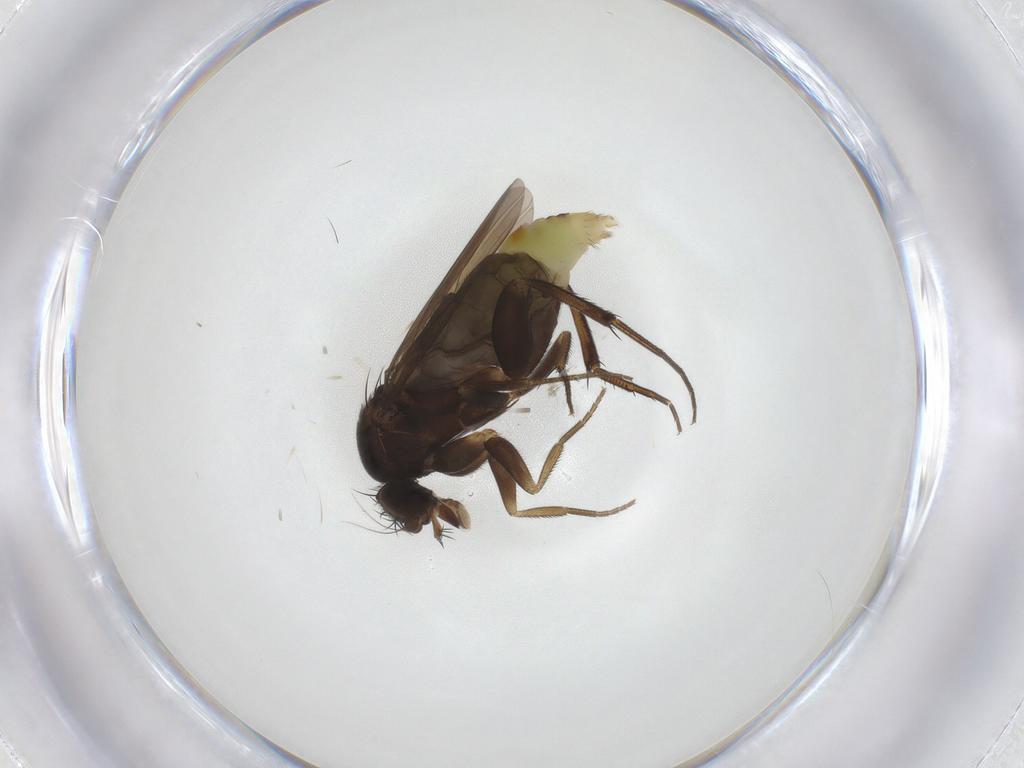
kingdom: Animalia
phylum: Arthropoda
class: Insecta
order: Diptera
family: Phoridae
